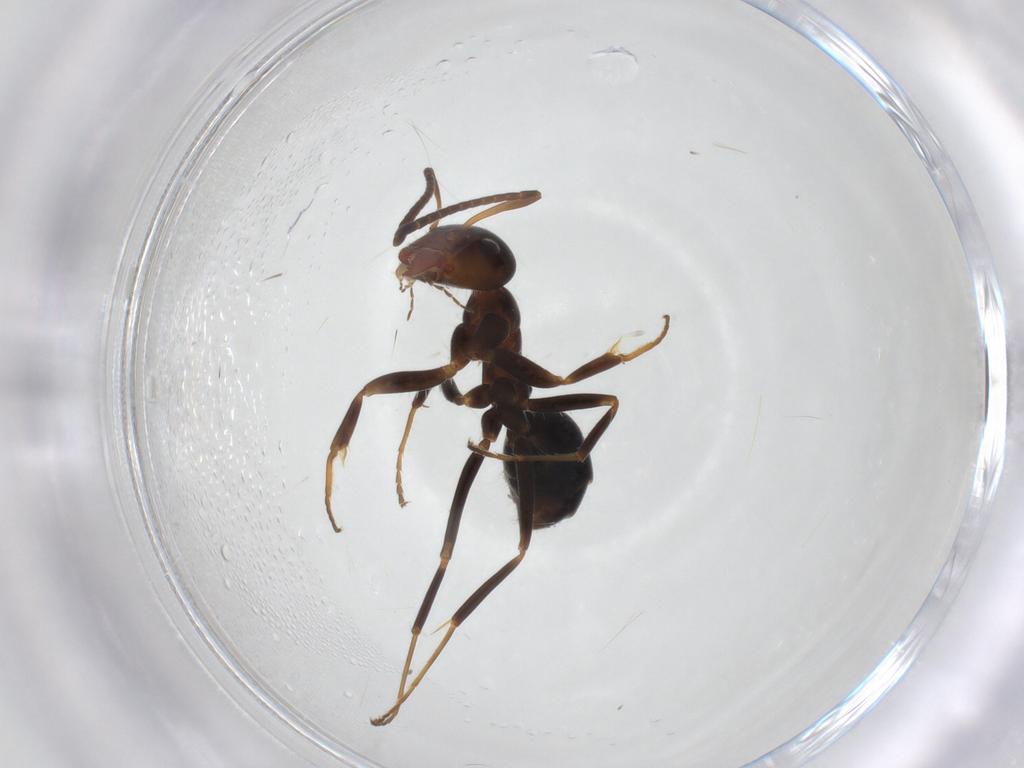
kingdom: Animalia
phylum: Arthropoda
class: Insecta
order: Hymenoptera
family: Formicidae
